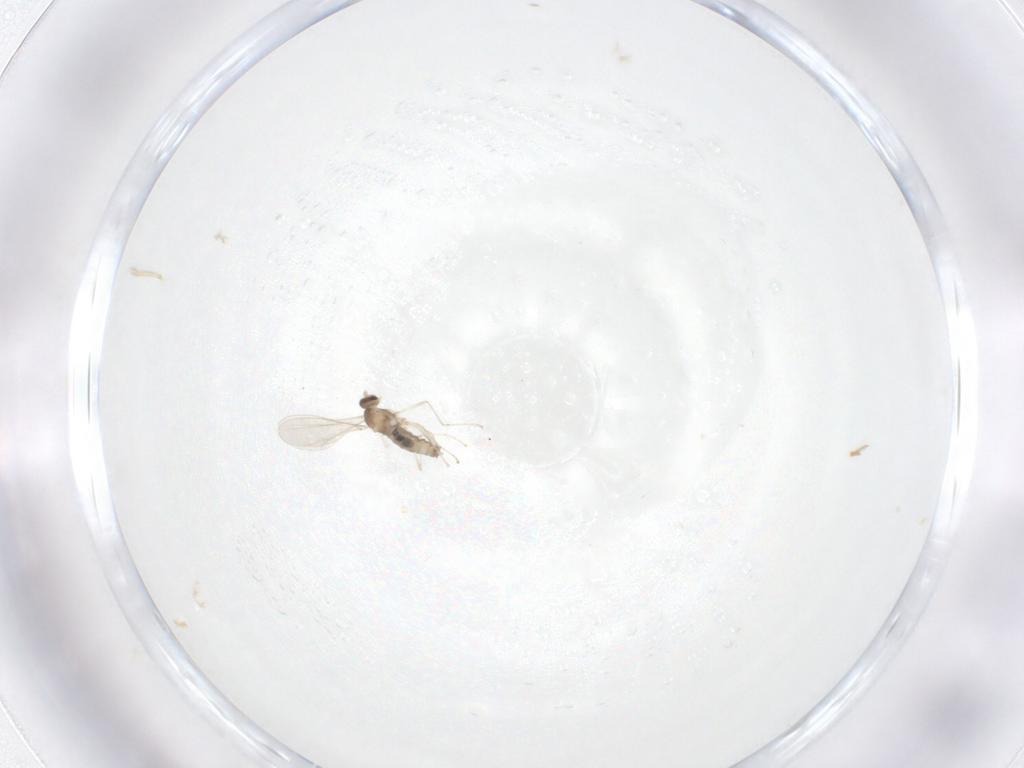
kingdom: Animalia
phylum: Arthropoda
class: Insecta
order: Diptera
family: Cecidomyiidae
